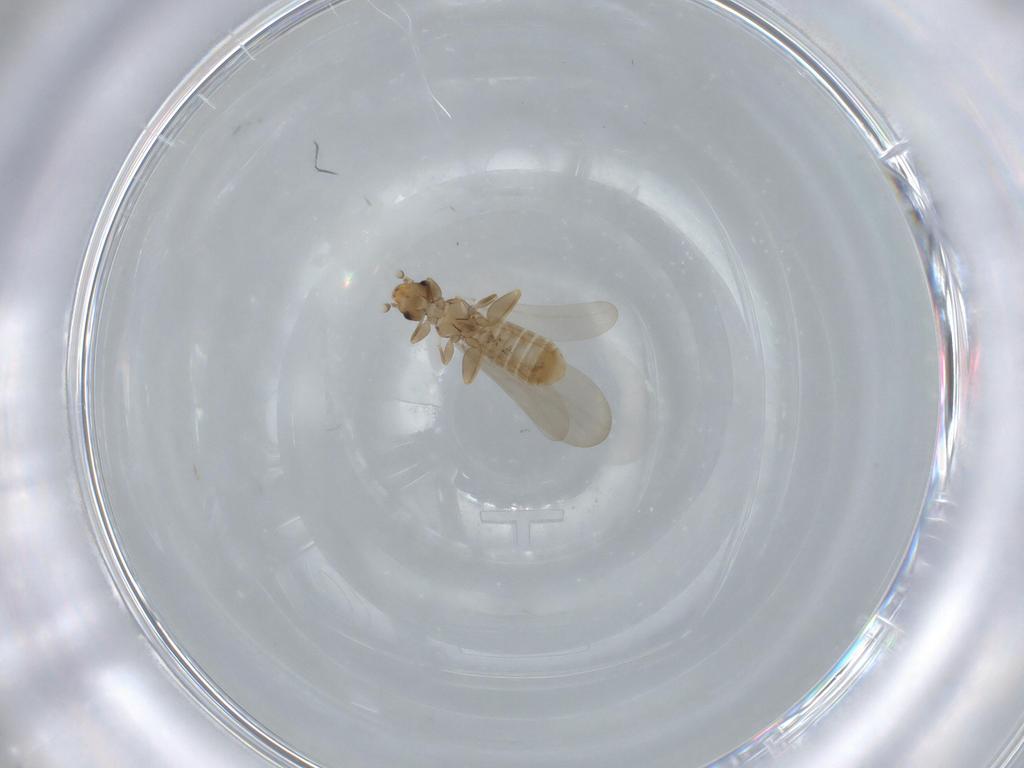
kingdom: Animalia
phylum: Arthropoda
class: Insecta
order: Psocodea
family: Liposcelididae
